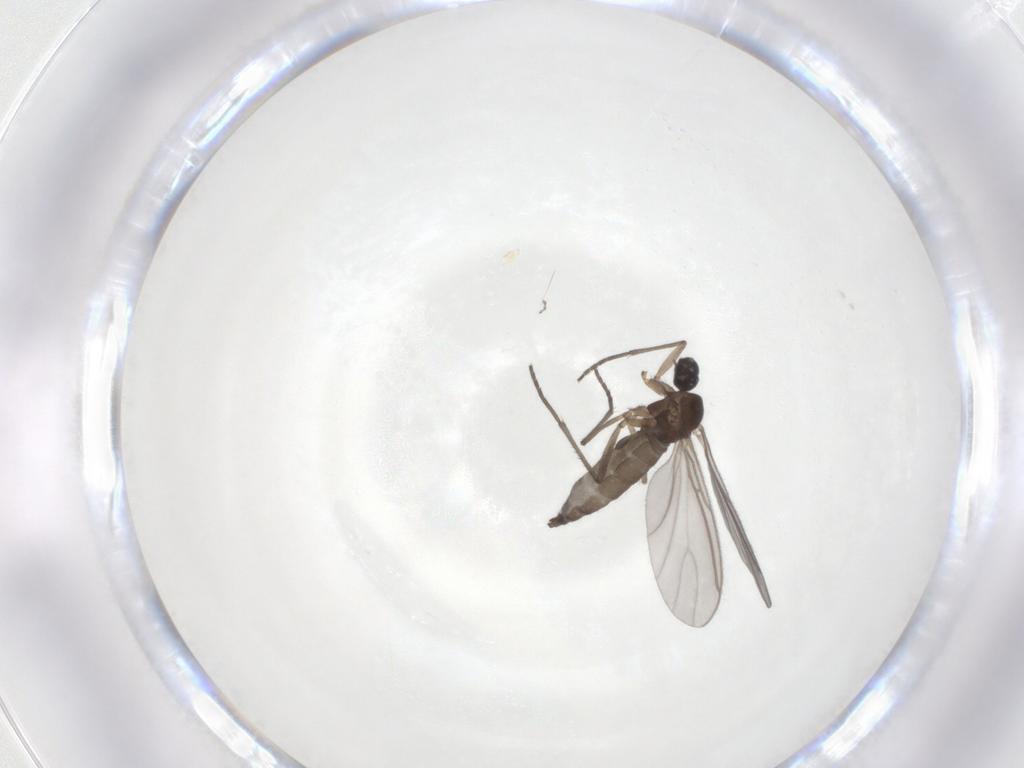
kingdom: Animalia
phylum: Arthropoda
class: Insecta
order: Diptera
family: Sciaridae
